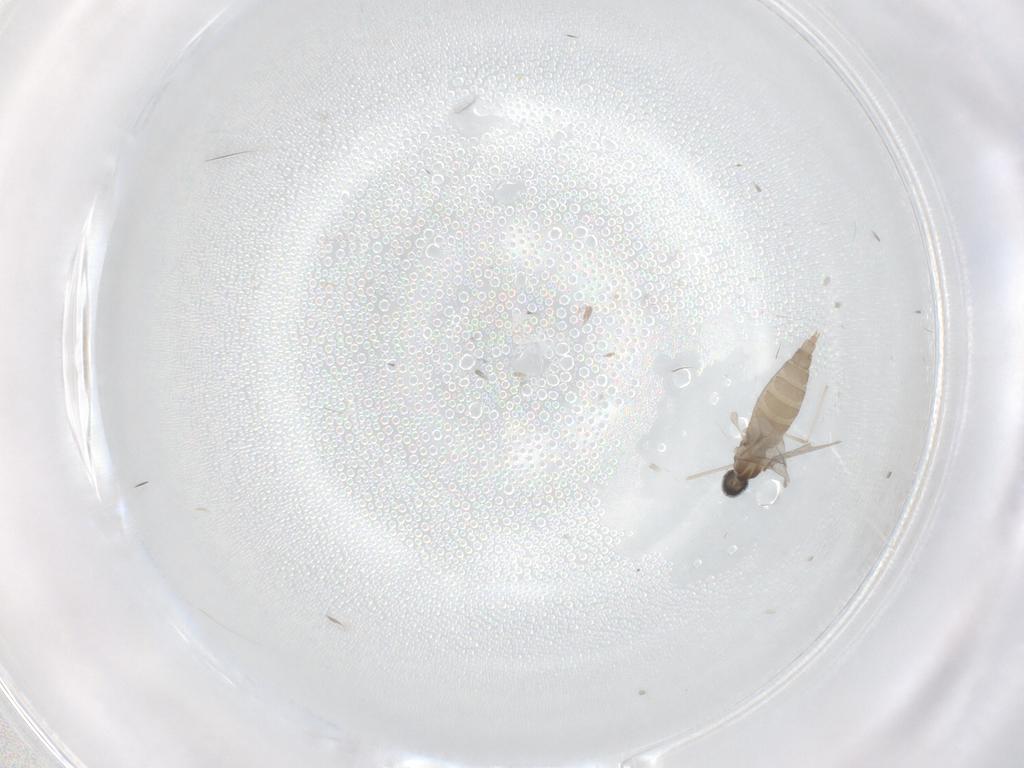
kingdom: Animalia
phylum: Arthropoda
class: Insecta
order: Diptera
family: Cecidomyiidae
